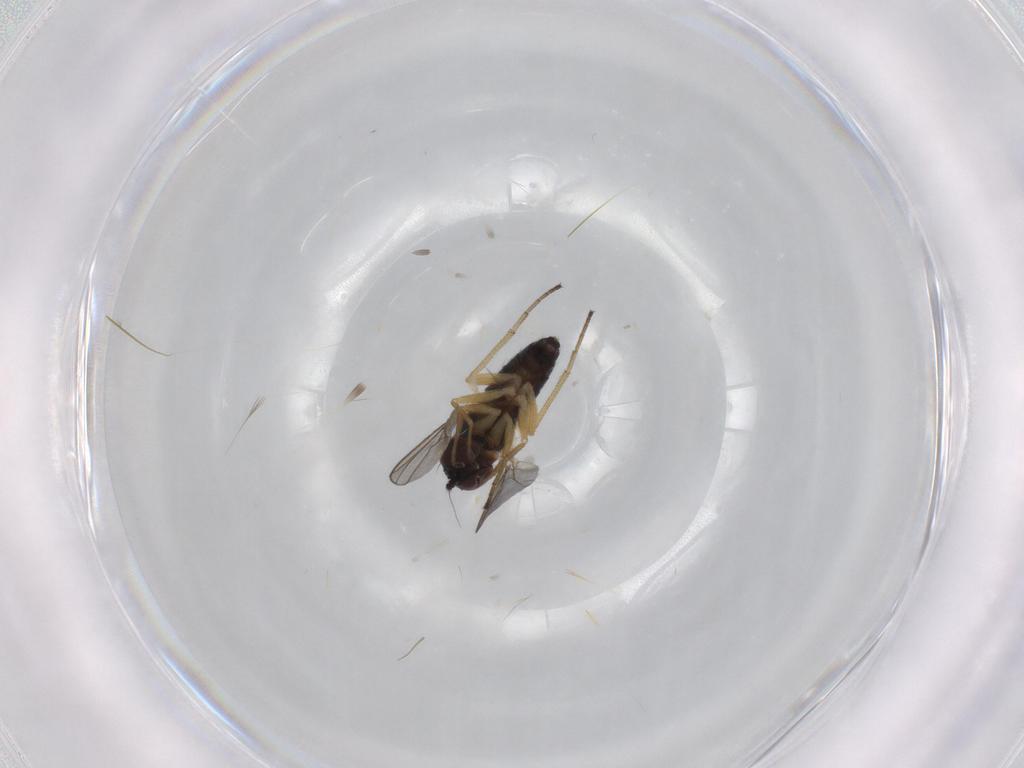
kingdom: Animalia
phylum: Arthropoda
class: Insecta
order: Diptera
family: Dolichopodidae
